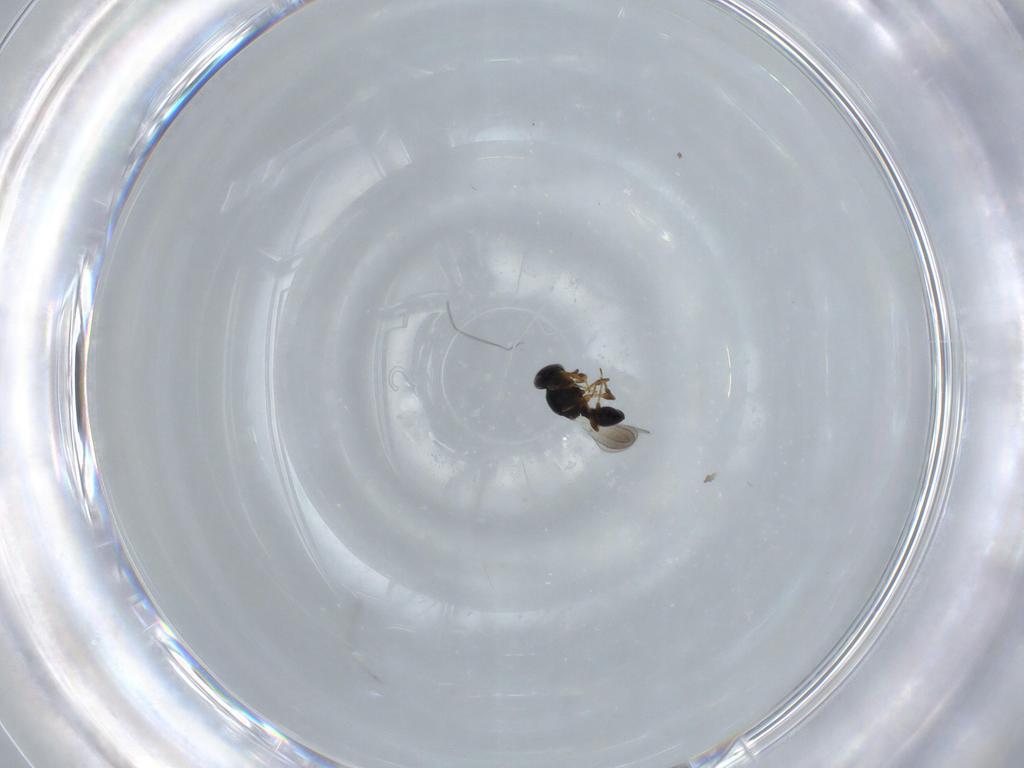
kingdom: Animalia
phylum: Arthropoda
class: Insecta
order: Hymenoptera
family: Platygastridae
